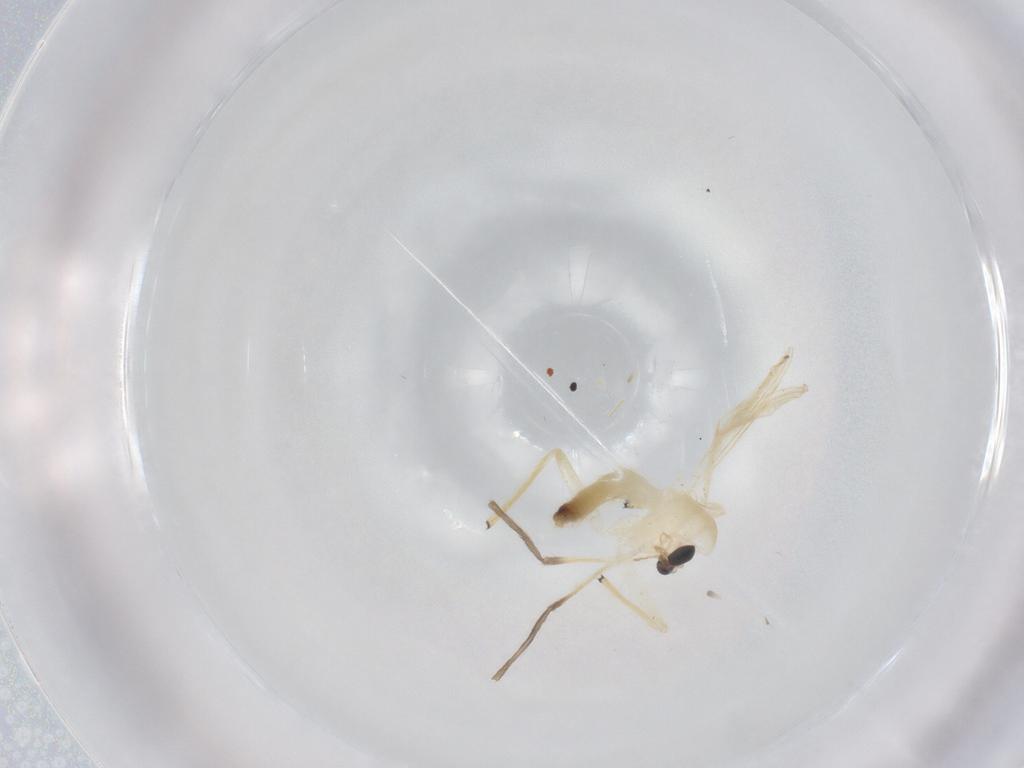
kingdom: Animalia
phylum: Arthropoda
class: Insecta
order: Diptera
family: Chironomidae
